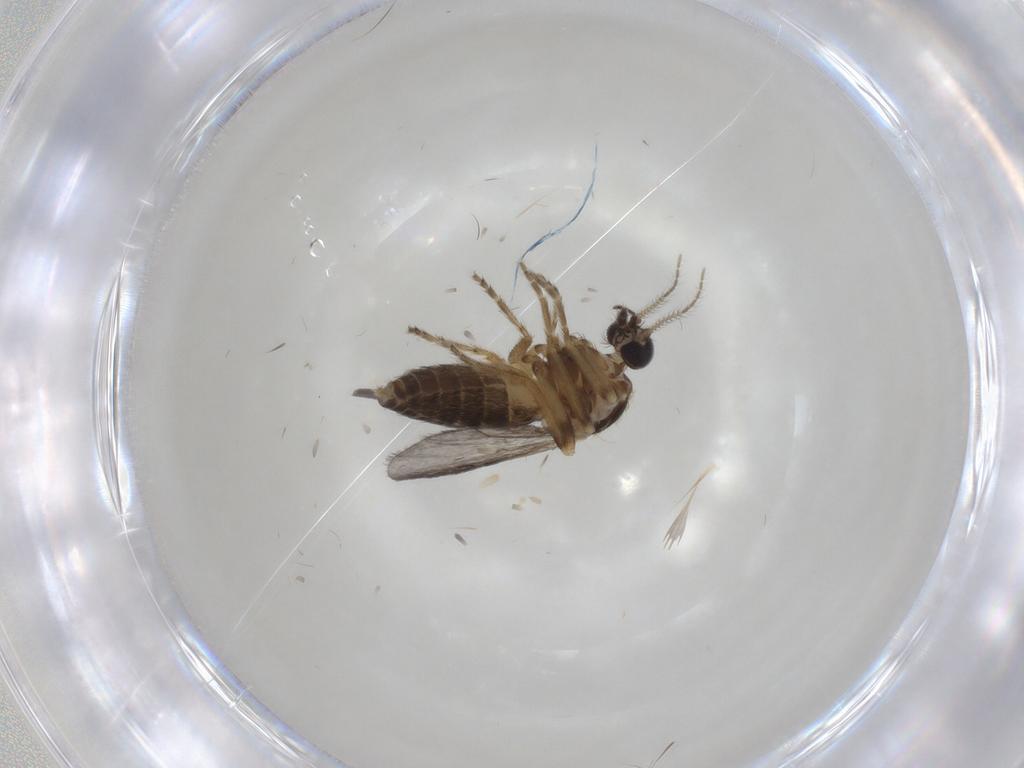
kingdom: Animalia
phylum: Arthropoda
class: Insecta
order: Diptera
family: Ceratopogonidae
